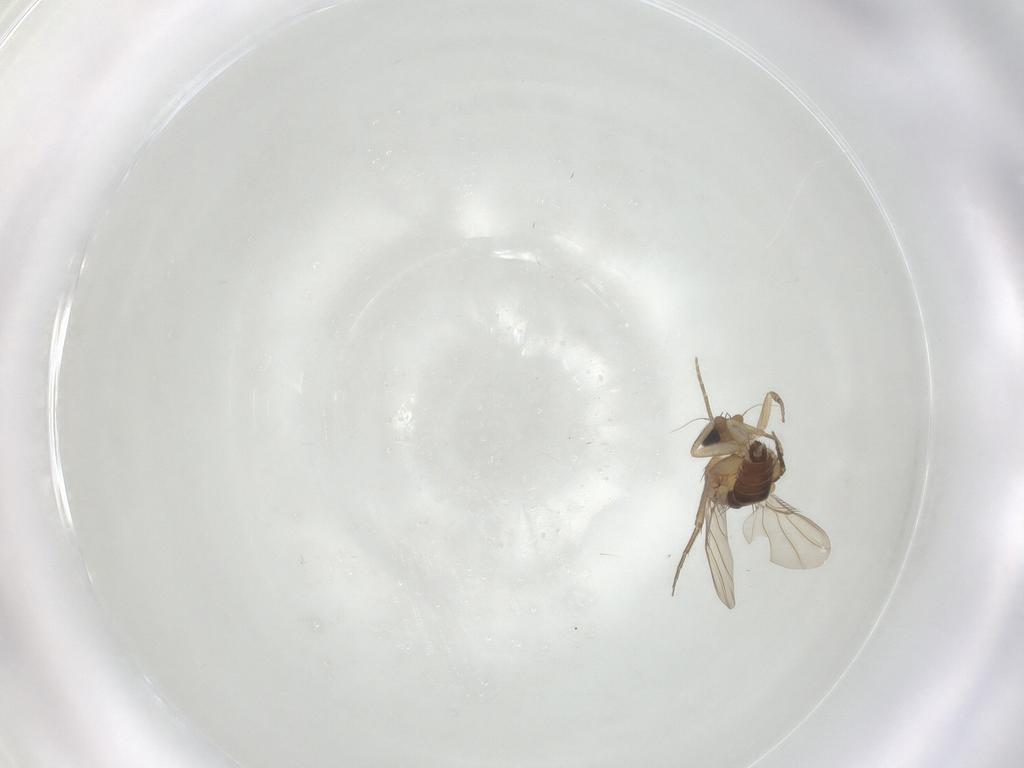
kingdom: Animalia
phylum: Arthropoda
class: Insecta
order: Diptera
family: Phoridae
